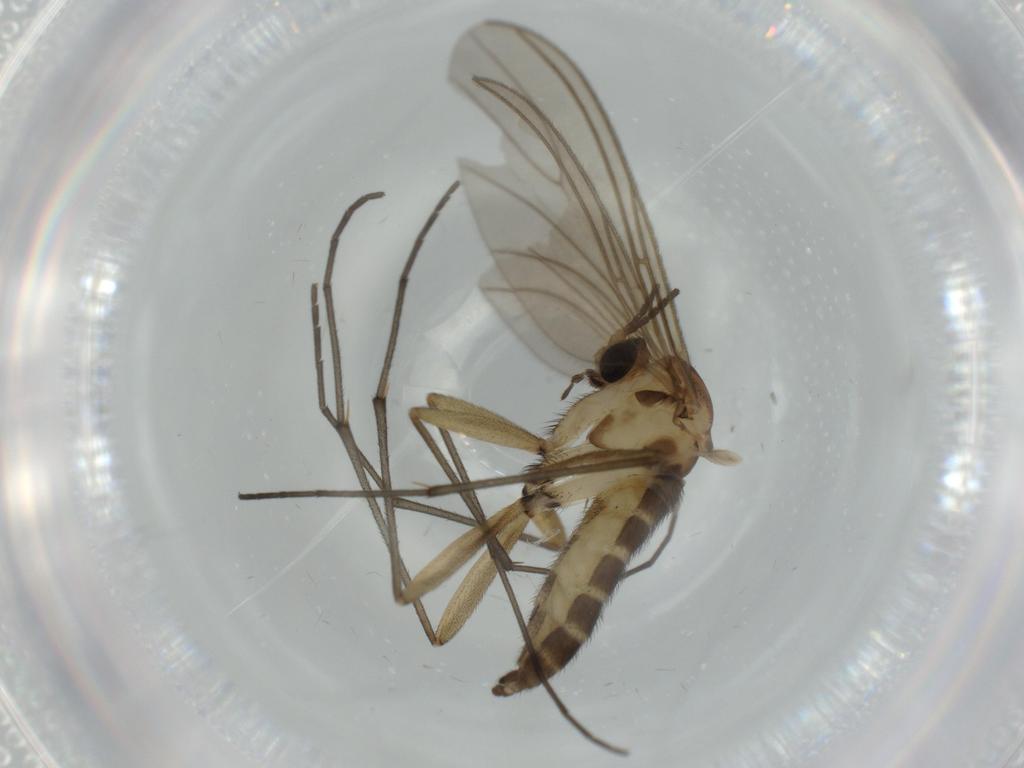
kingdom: Animalia
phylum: Arthropoda
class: Insecta
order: Diptera
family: Sciaridae
